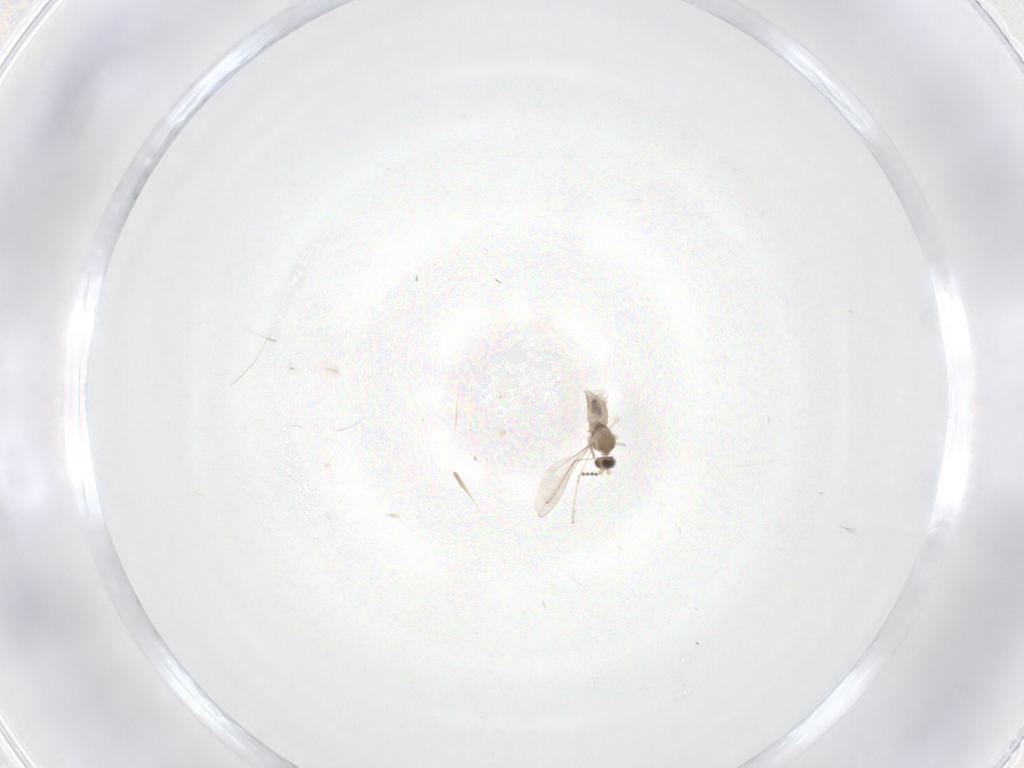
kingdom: Animalia
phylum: Arthropoda
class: Insecta
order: Diptera
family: Cecidomyiidae
